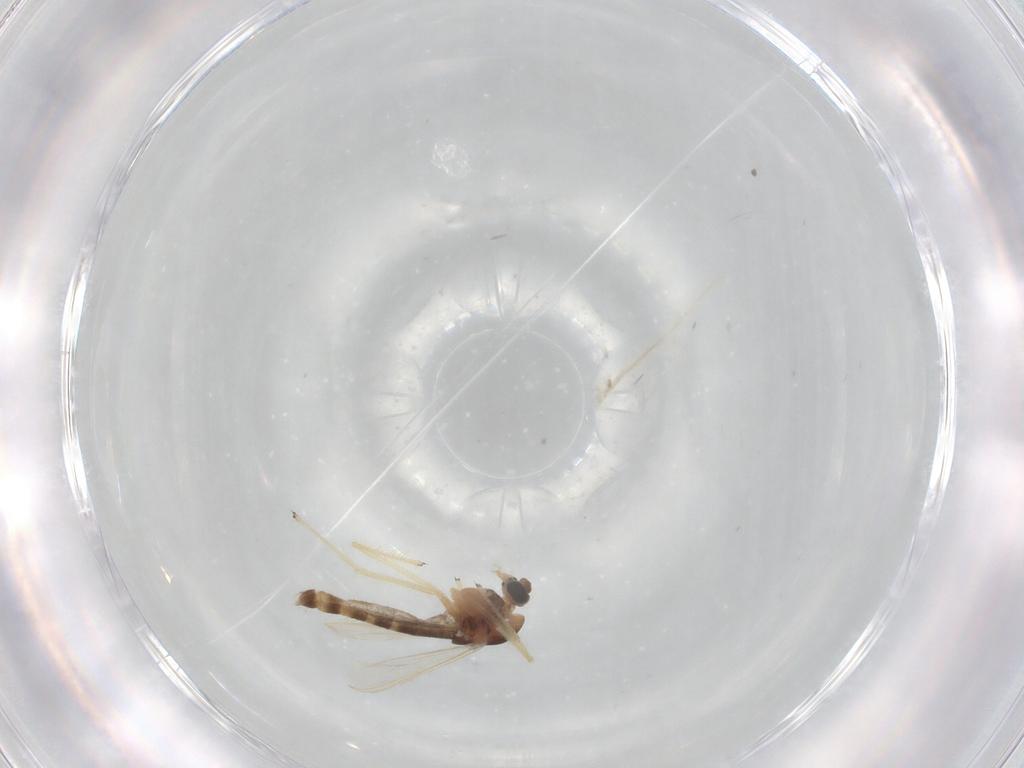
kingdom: Animalia
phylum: Arthropoda
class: Insecta
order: Diptera
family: Chironomidae
